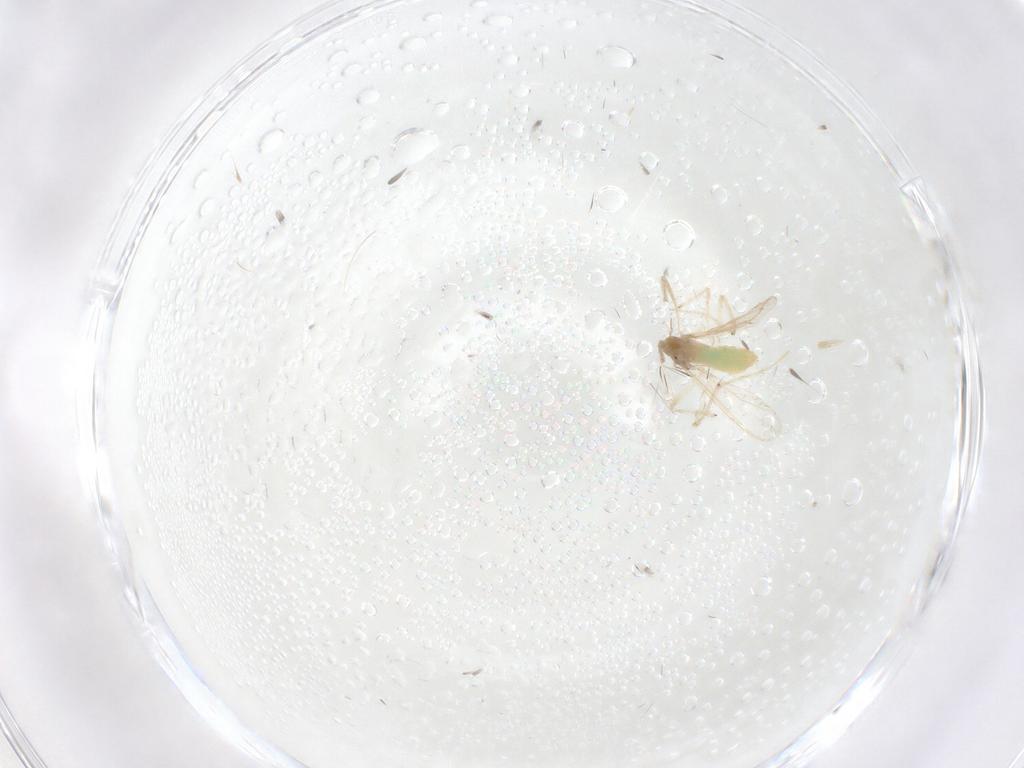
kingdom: Animalia
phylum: Arthropoda
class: Insecta
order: Diptera
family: Chironomidae
